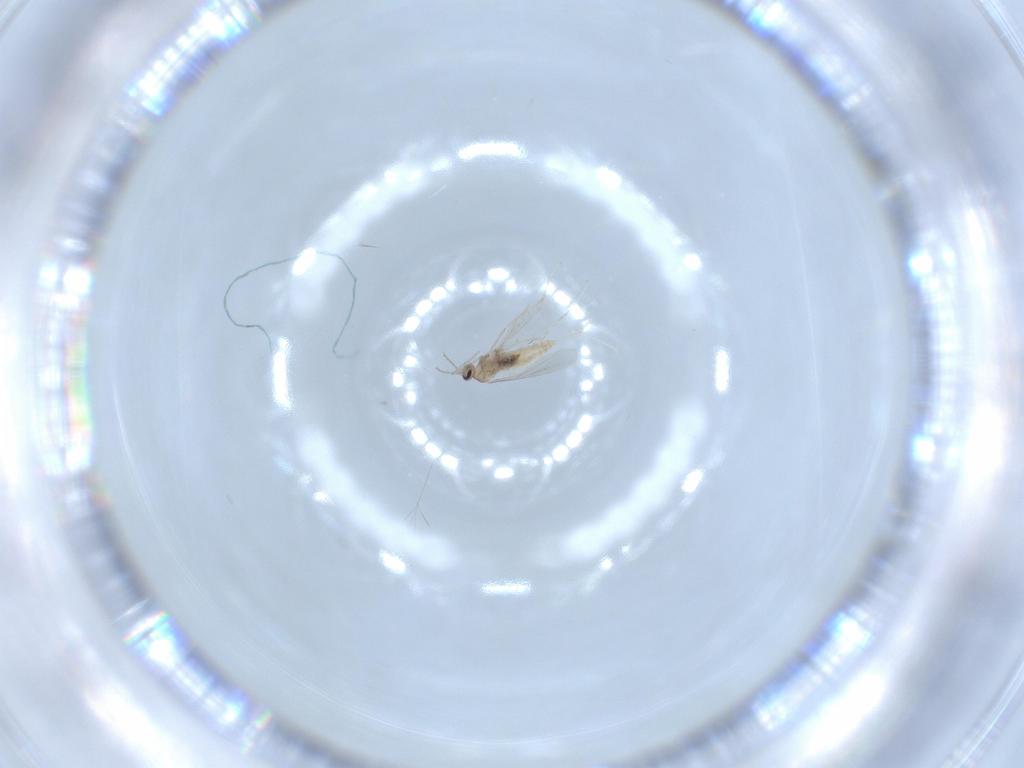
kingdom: Animalia
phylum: Arthropoda
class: Insecta
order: Diptera
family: Cecidomyiidae
